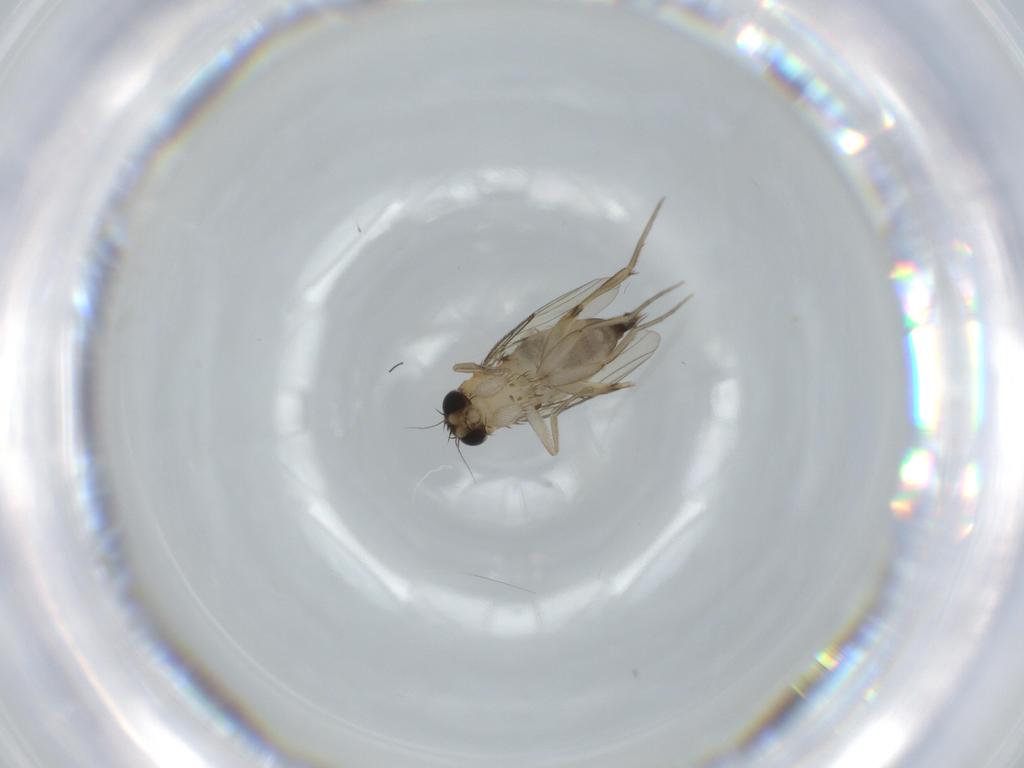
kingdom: Animalia
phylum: Arthropoda
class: Insecta
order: Diptera
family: Phoridae
